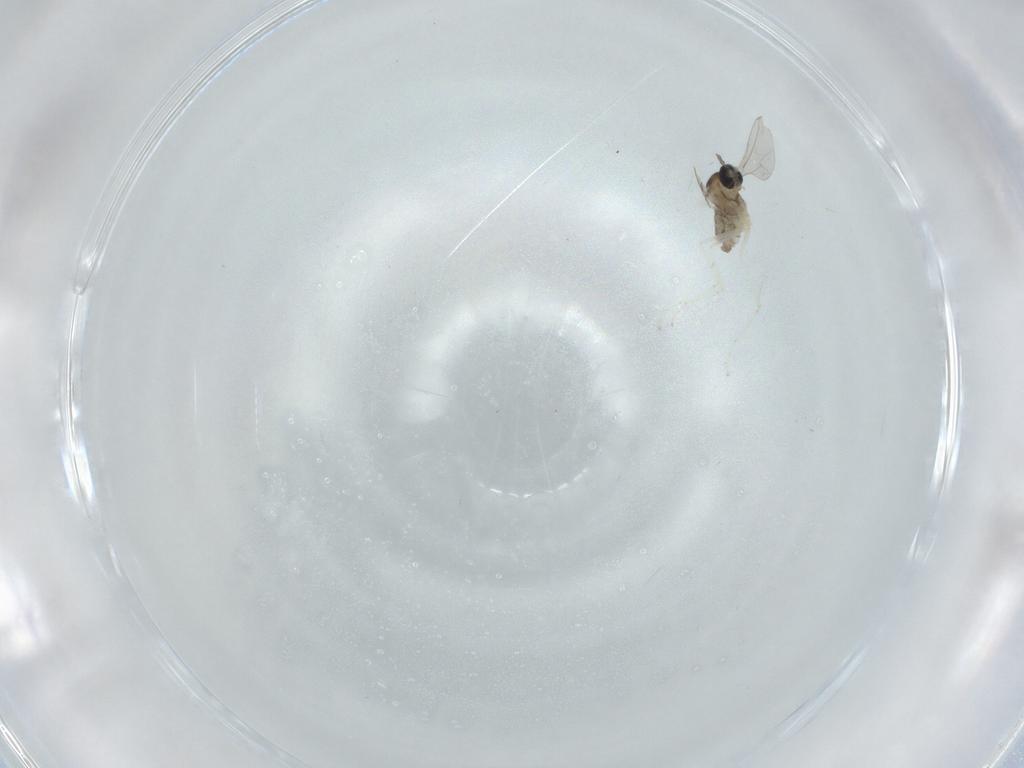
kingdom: Animalia
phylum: Arthropoda
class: Insecta
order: Diptera
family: Cecidomyiidae
